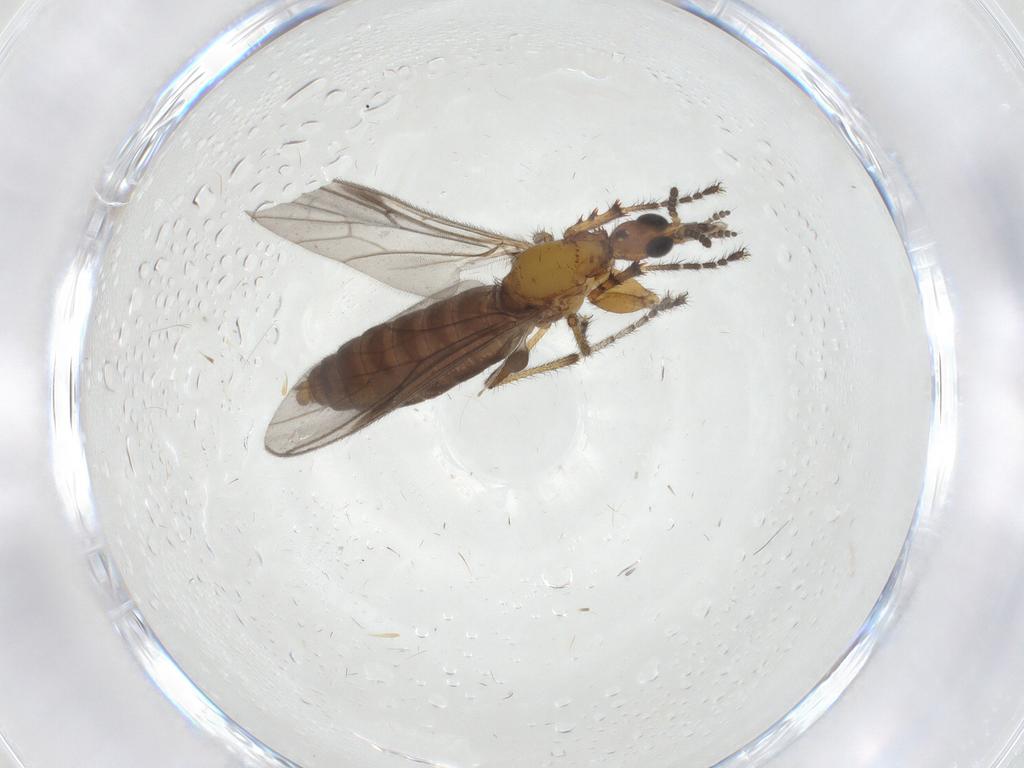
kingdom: Animalia
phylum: Arthropoda
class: Insecta
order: Diptera
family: Bibionidae
